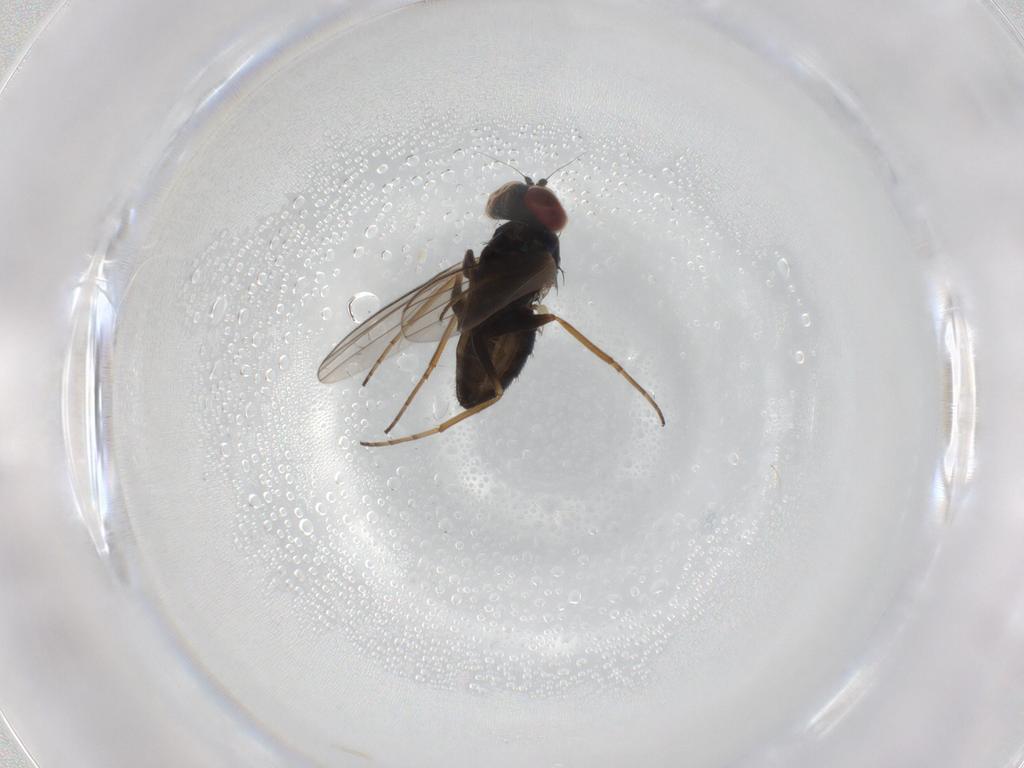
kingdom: Animalia
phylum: Arthropoda
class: Insecta
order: Diptera
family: Dolichopodidae
